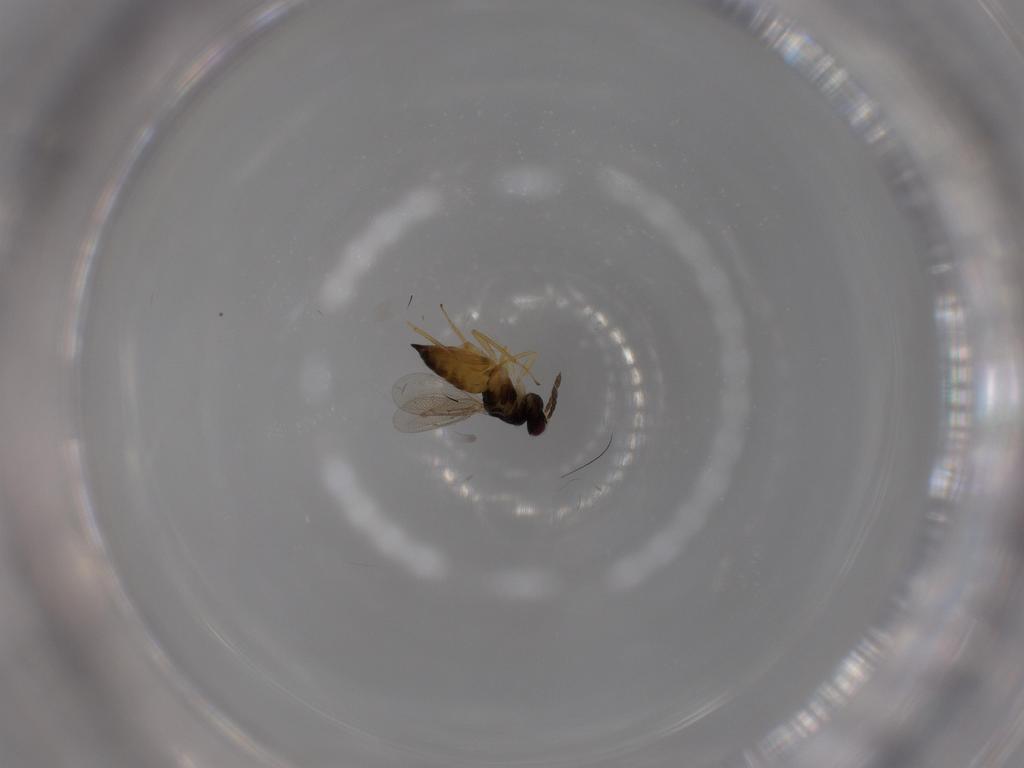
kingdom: Animalia
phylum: Arthropoda
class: Insecta
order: Hymenoptera
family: Eulophidae
